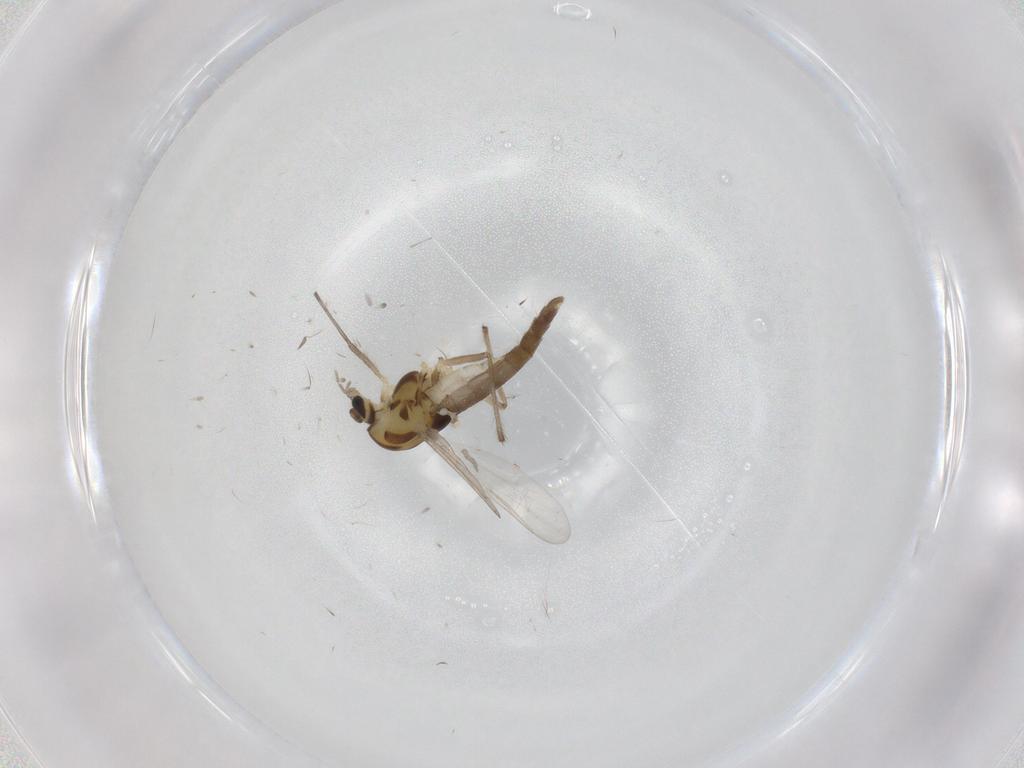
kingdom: Animalia
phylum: Arthropoda
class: Insecta
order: Diptera
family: Chironomidae
